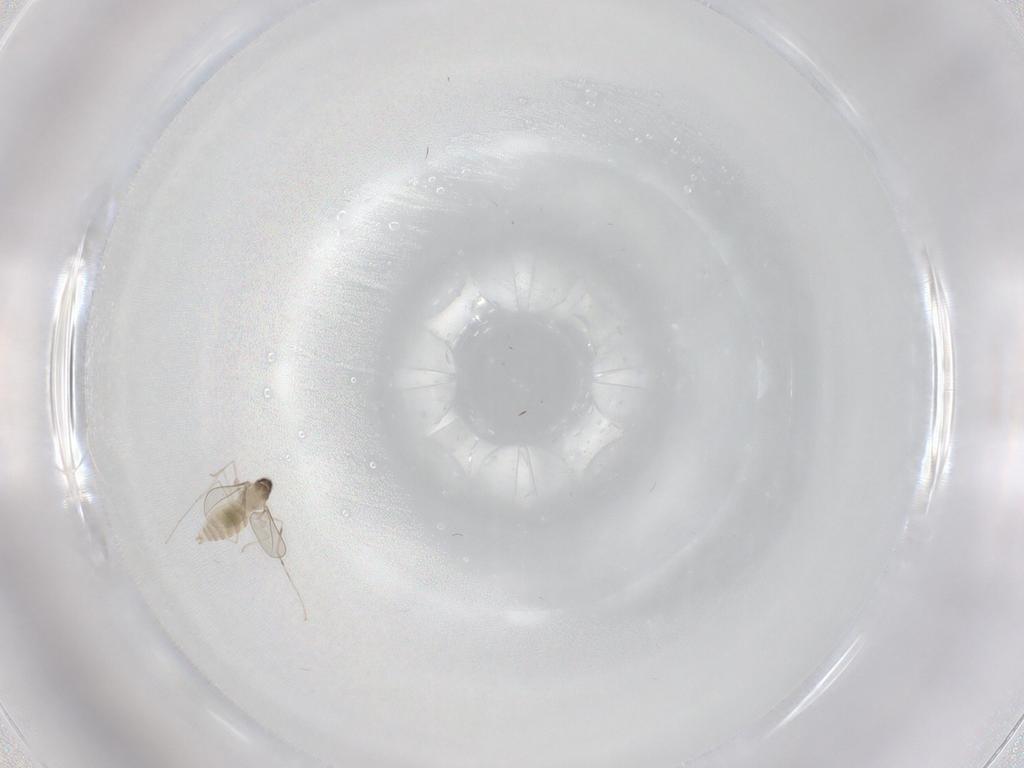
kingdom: Animalia
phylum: Arthropoda
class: Insecta
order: Diptera
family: Cecidomyiidae
